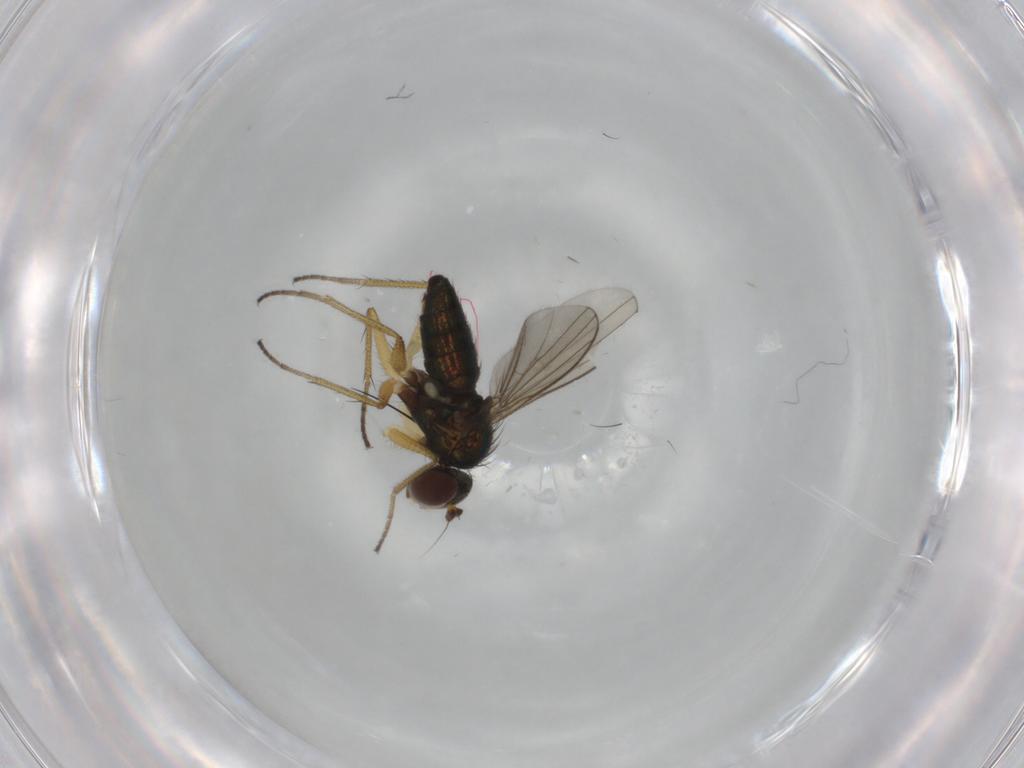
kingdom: Animalia
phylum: Arthropoda
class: Insecta
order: Diptera
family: Dolichopodidae
